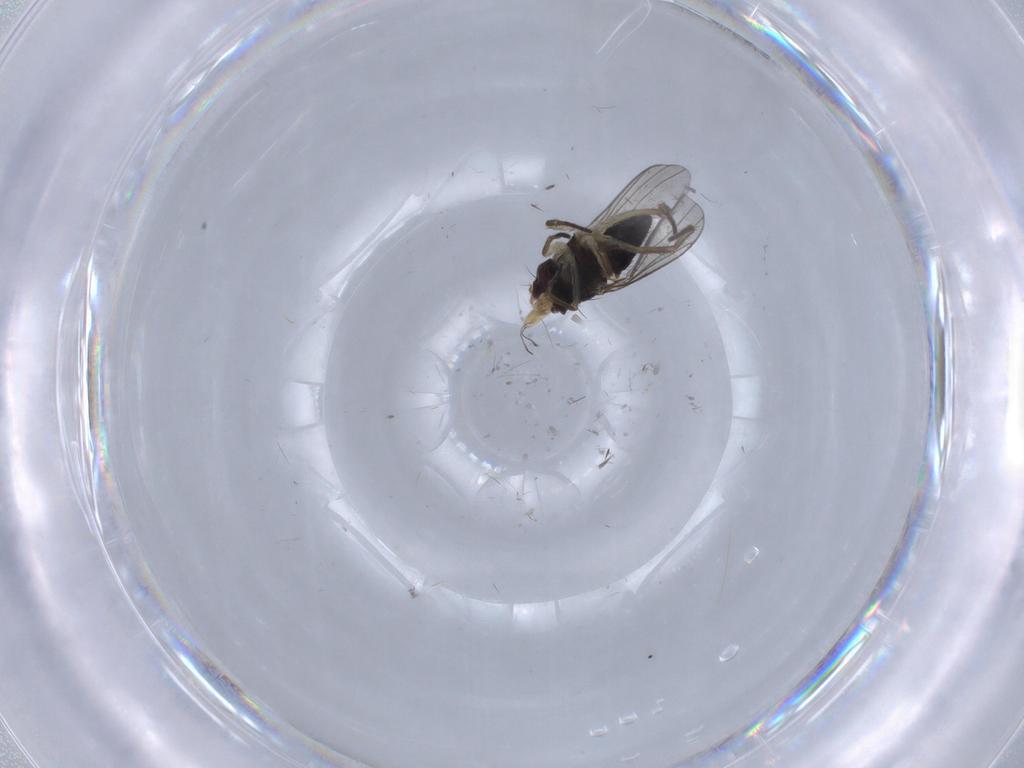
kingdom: Animalia
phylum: Arthropoda
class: Insecta
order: Diptera
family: Dolichopodidae
